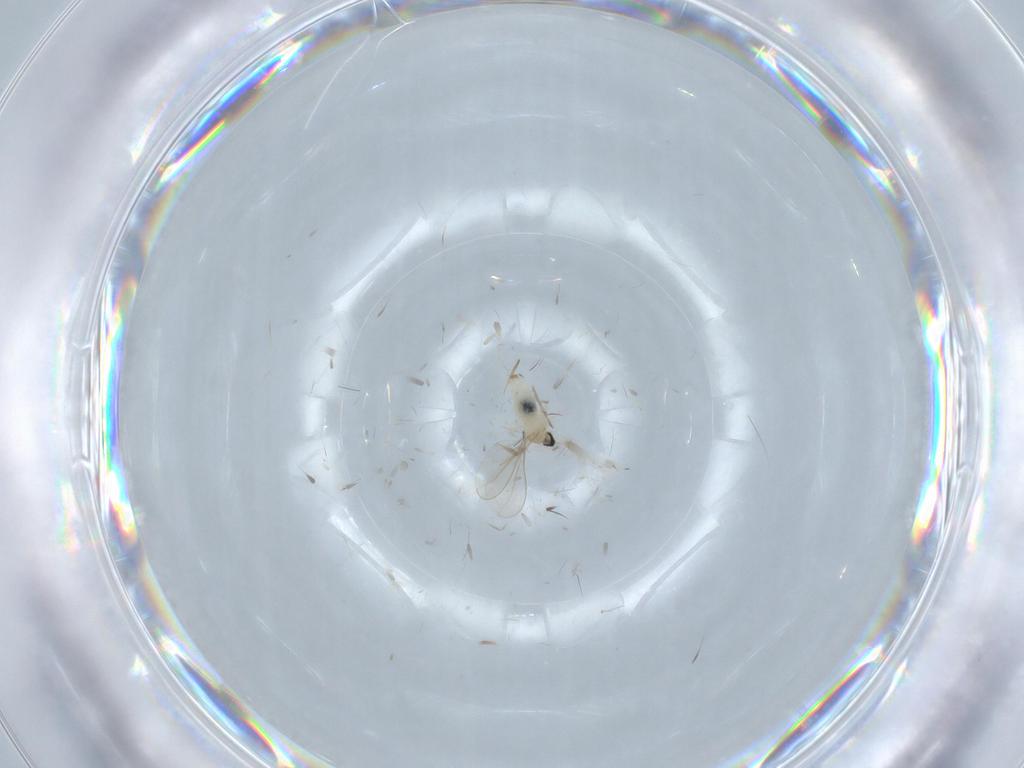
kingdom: Animalia
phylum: Arthropoda
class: Insecta
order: Diptera
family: Cecidomyiidae
